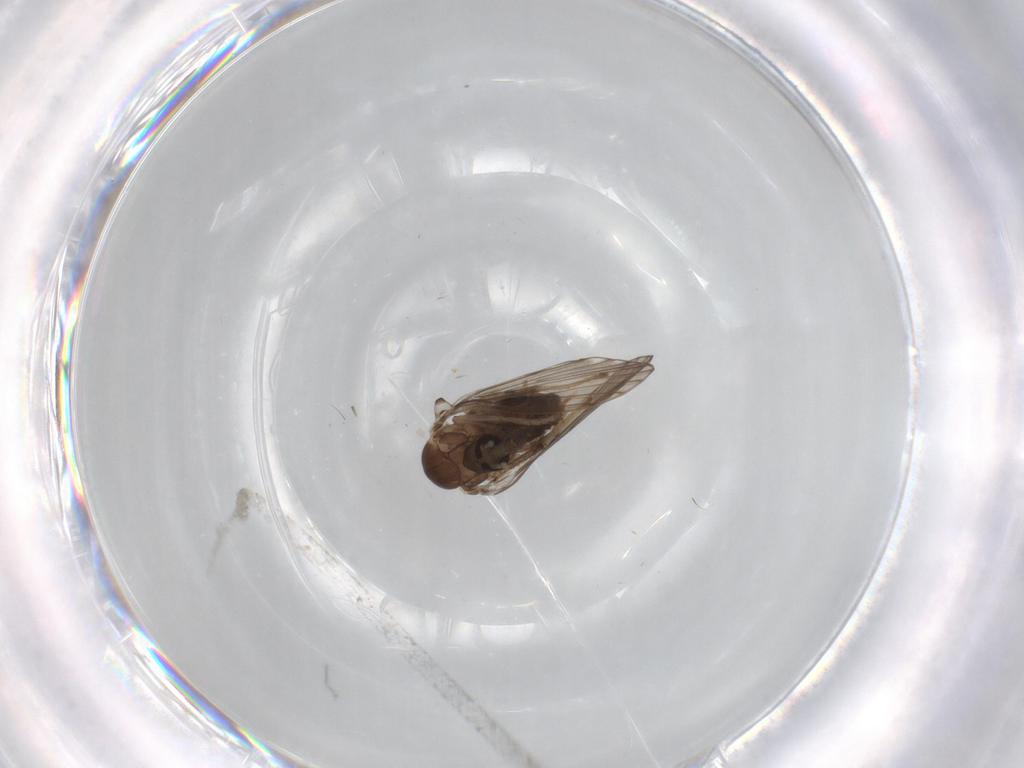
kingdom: Animalia
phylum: Arthropoda
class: Insecta
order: Diptera
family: Psychodidae
